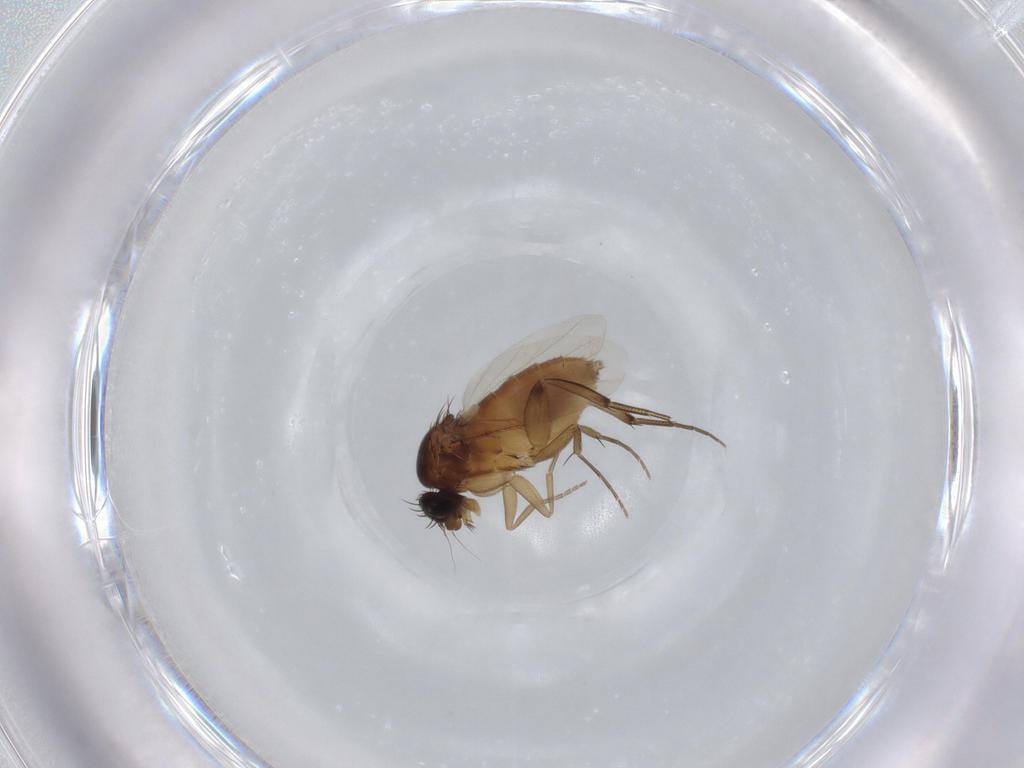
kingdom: Animalia
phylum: Arthropoda
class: Insecta
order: Diptera
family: Phoridae
